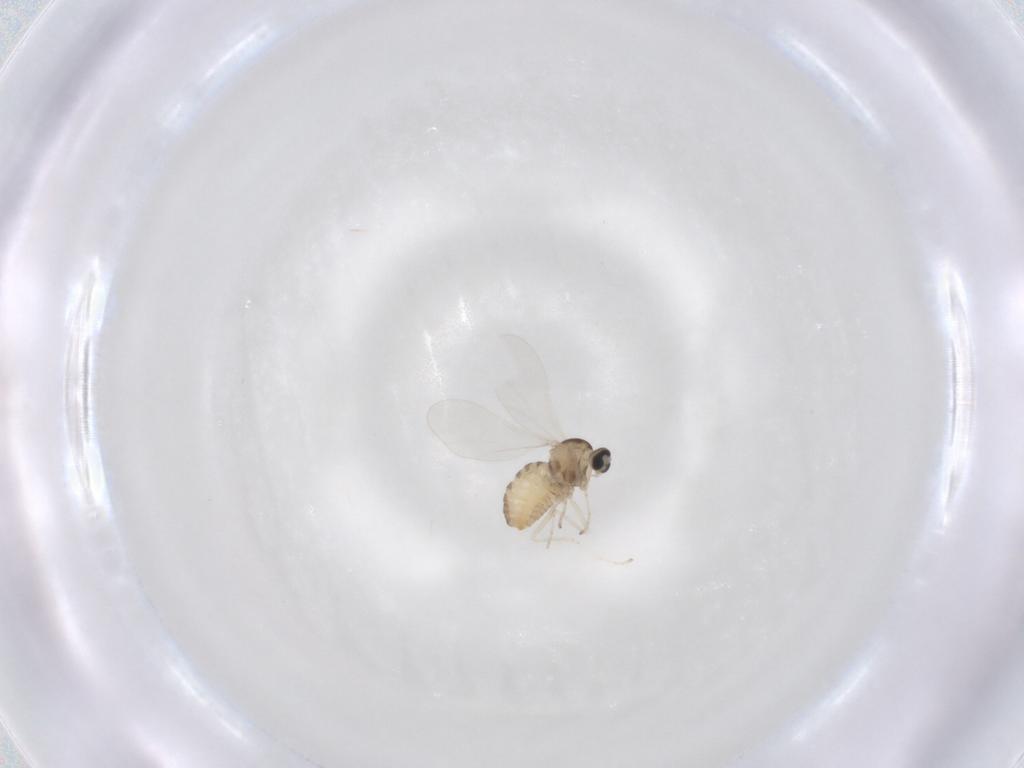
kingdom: Animalia
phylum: Arthropoda
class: Insecta
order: Diptera
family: Cecidomyiidae
